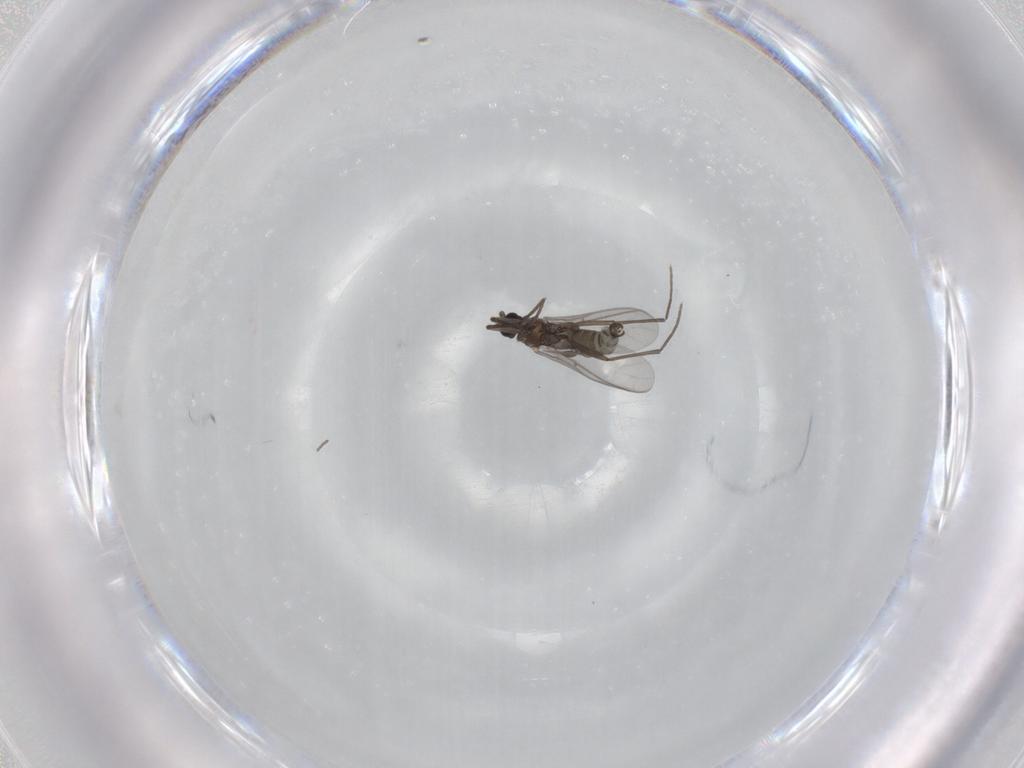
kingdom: Animalia
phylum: Arthropoda
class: Insecta
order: Diptera
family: Sciaridae
